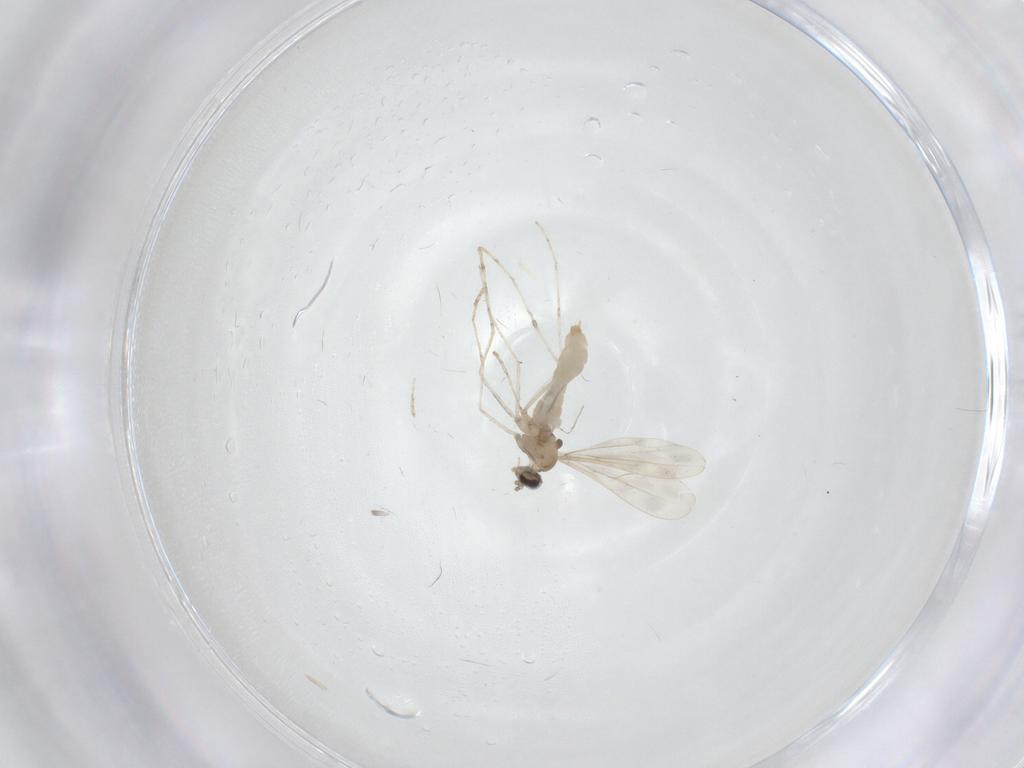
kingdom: Animalia
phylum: Arthropoda
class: Insecta
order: Diptera
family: Cecidomyiidae
